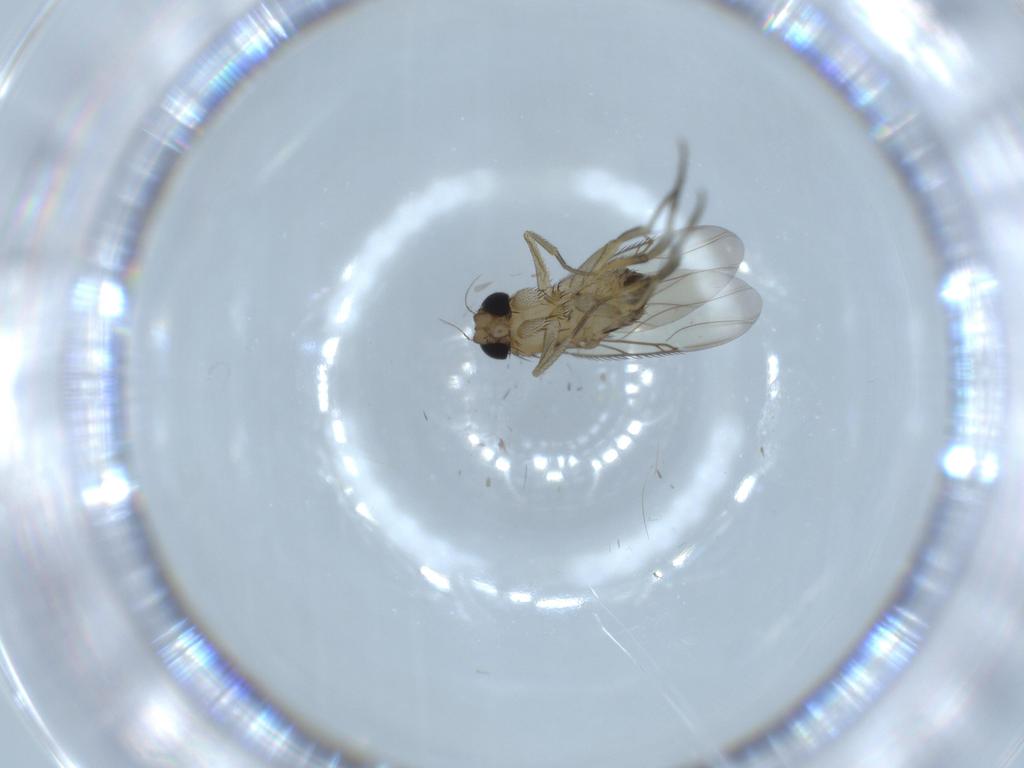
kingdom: Animalia
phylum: Arthropoda
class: Insecta
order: Diptera
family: Phoridae
